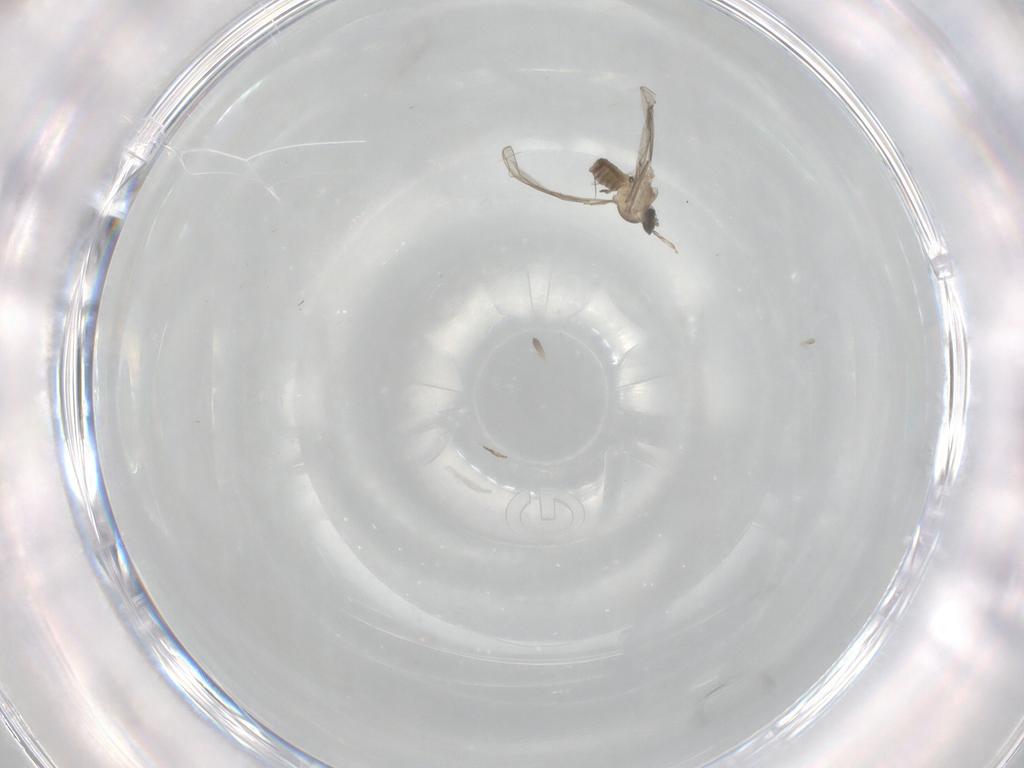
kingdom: Animalia
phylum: Arthropoda
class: Insecta
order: Diptera
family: Cecidomyiidae
